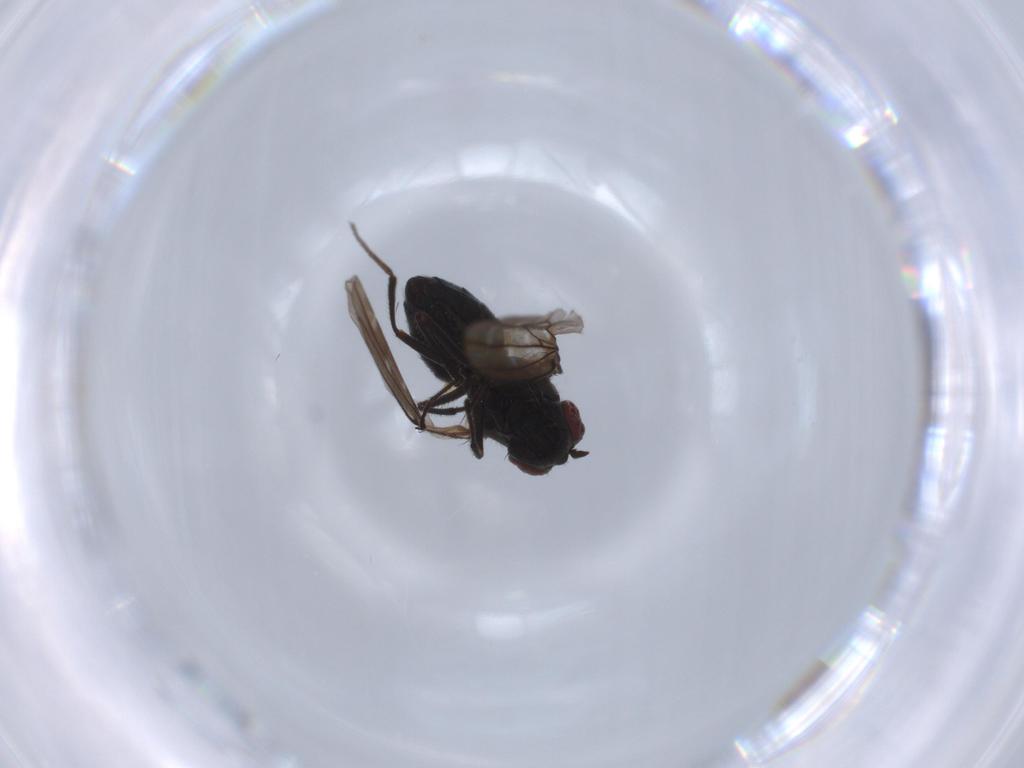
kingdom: Animalia
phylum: Arthropoda
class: Insecta
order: Diptera
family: Ephydridae
